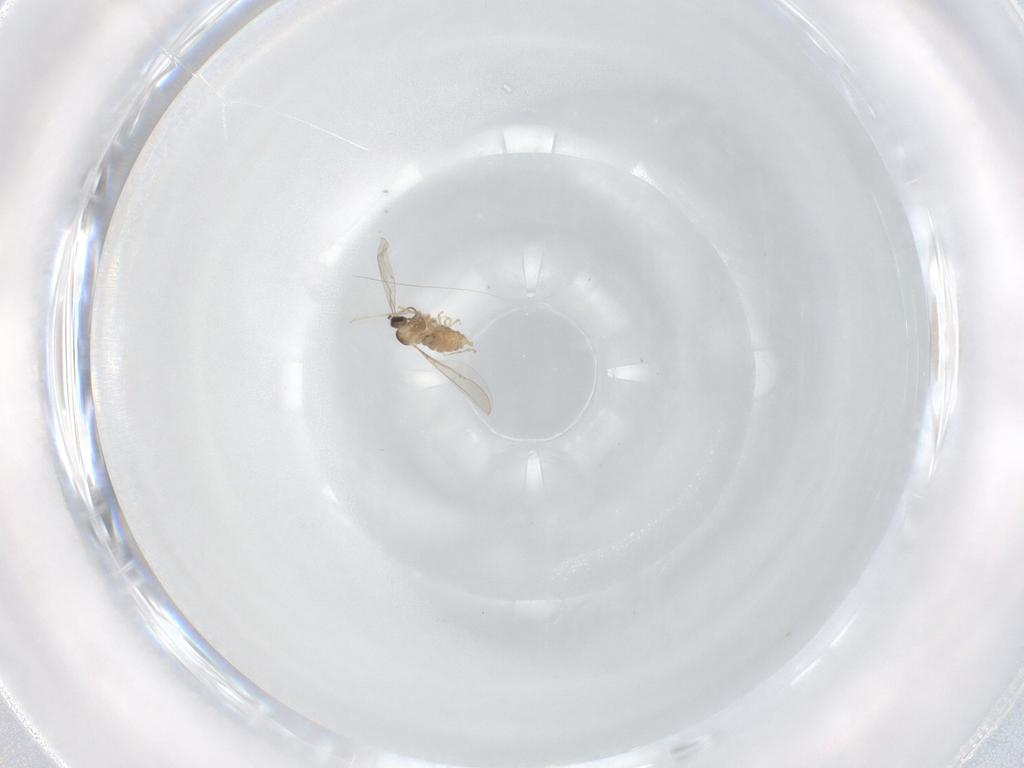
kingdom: Animalia
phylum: Arthropoda
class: Insecta
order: Diptera
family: Cecidomyiidae
